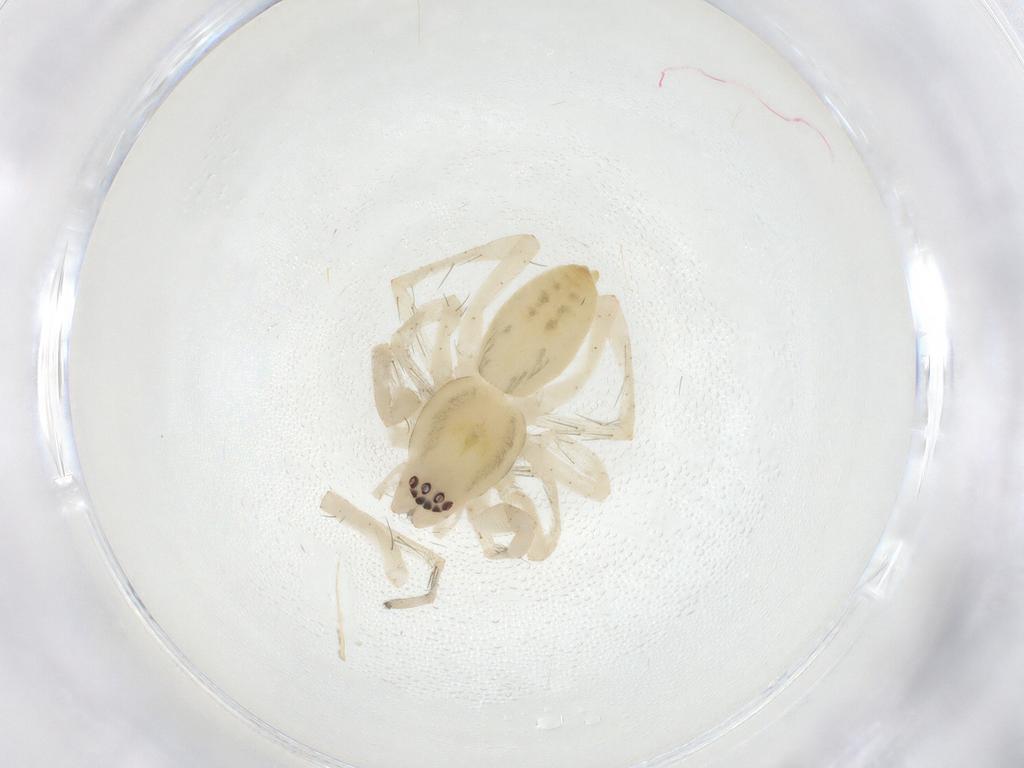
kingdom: Animalia
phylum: Arthropoda
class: Arachnida
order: Araneae
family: Anyphaenidae
